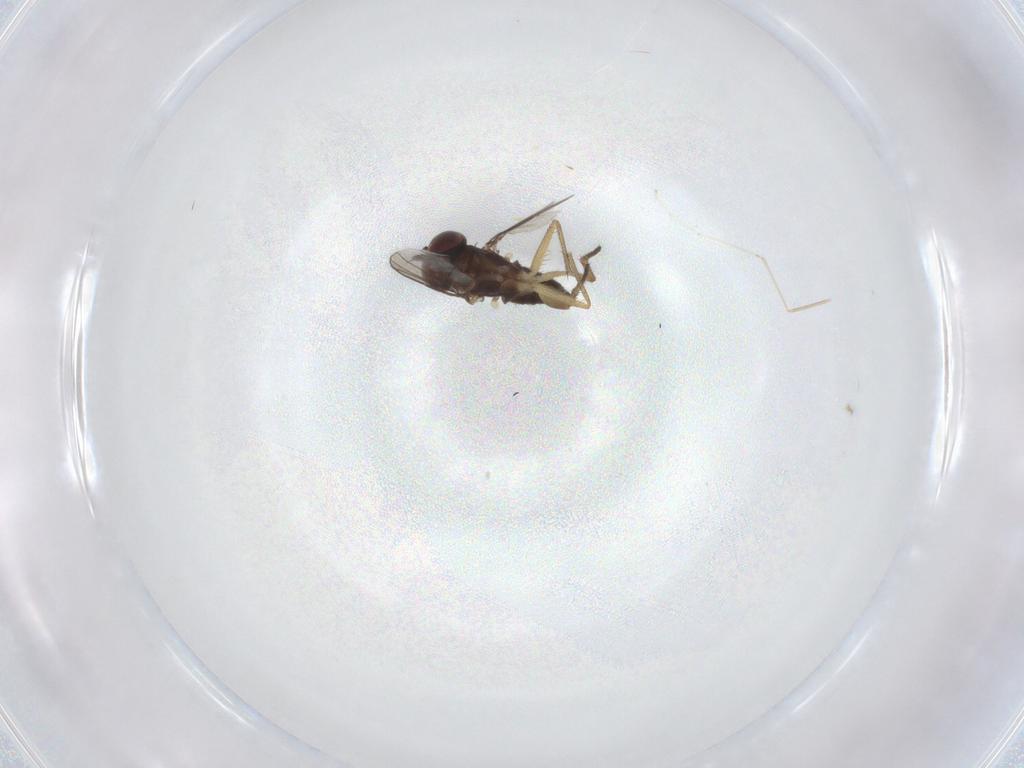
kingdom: Animalia
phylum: Arthropoda
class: Insecta
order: Diptera
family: Dolichopodidae
